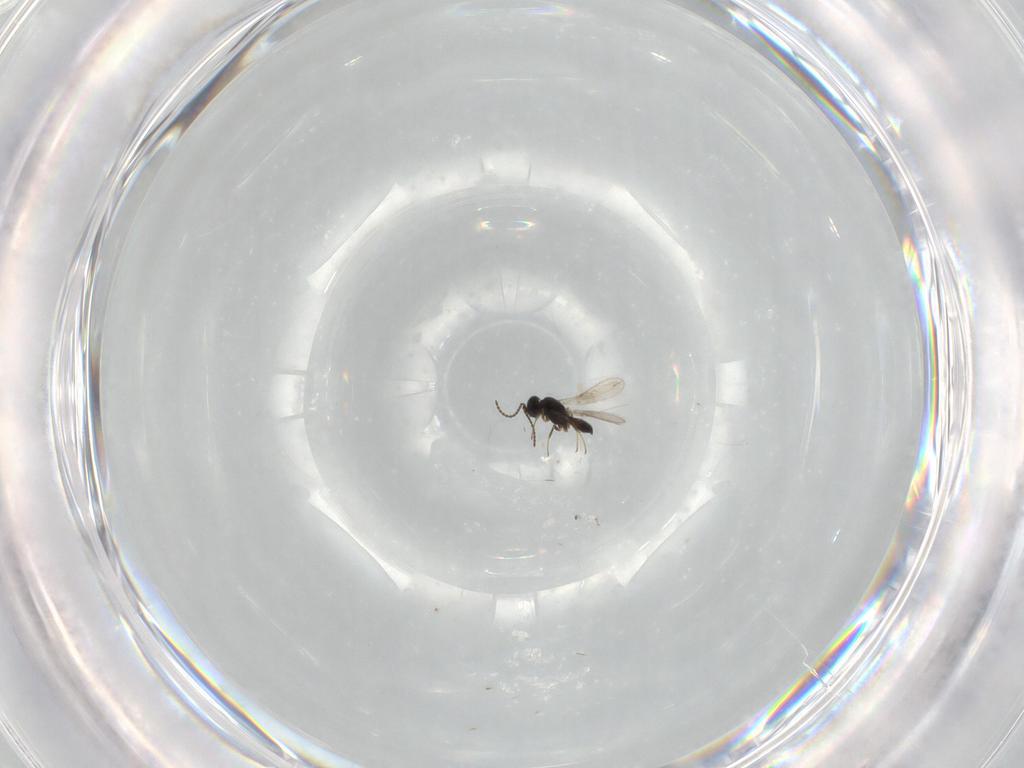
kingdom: Animalia
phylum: Arthropoda
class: Insecta
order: Hymenoptera
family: Scelionidae
